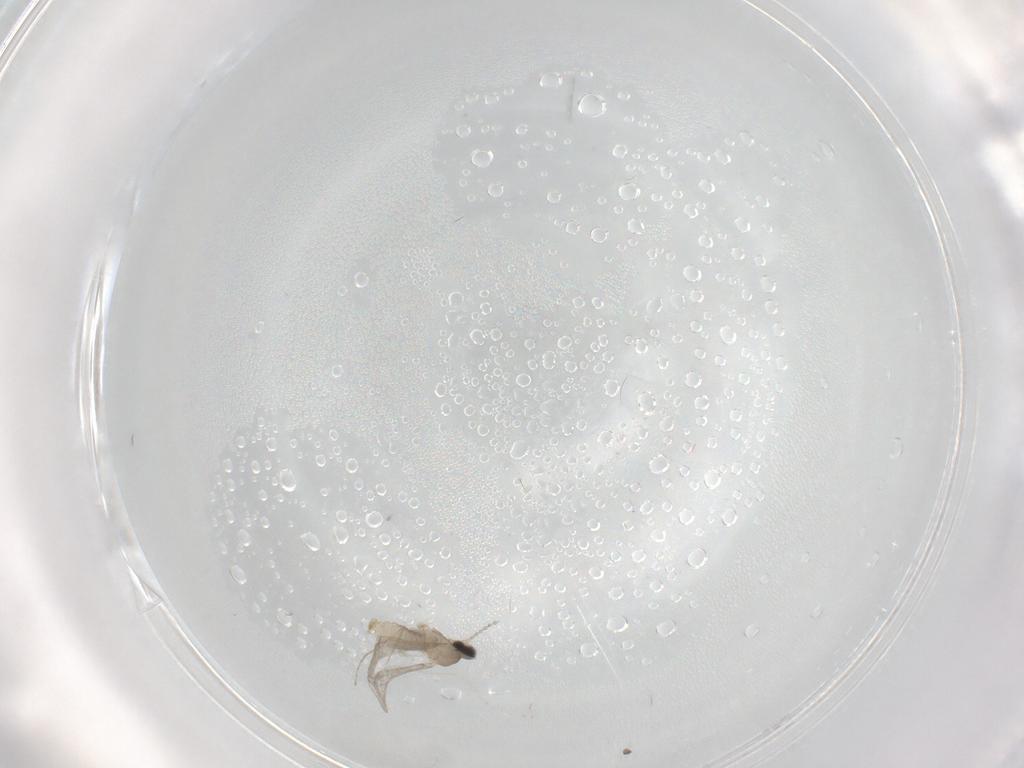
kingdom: Animalia
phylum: Arthropoda
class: Insecta
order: Diptera
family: Cecidomyiidae
